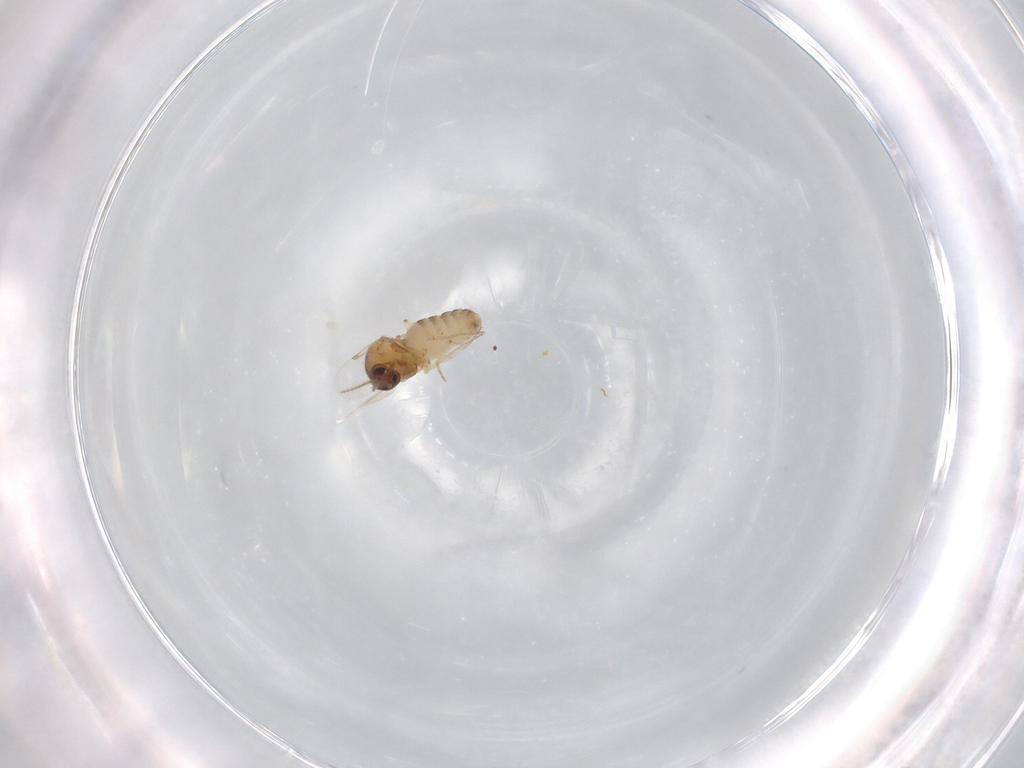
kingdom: Animalia
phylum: Arthropoda
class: Insecta
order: Diptera
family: Ceratopogonidae
